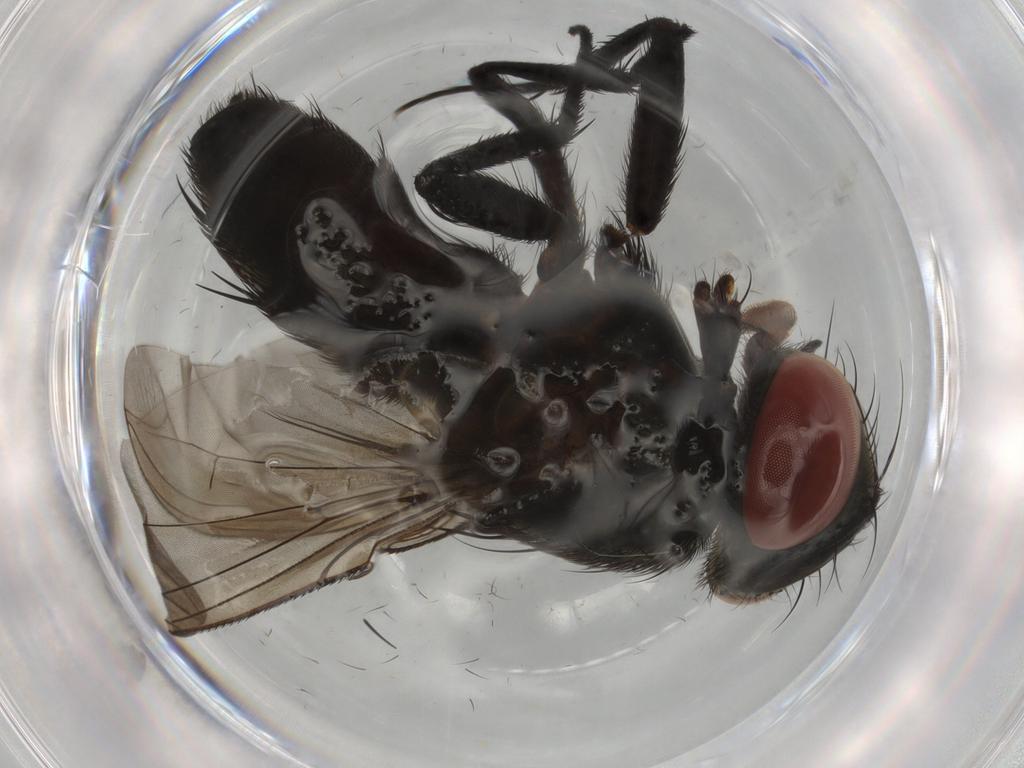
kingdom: Animalia
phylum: Arthropoda
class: Insecta
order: Diptera
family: Sarcophagidae
